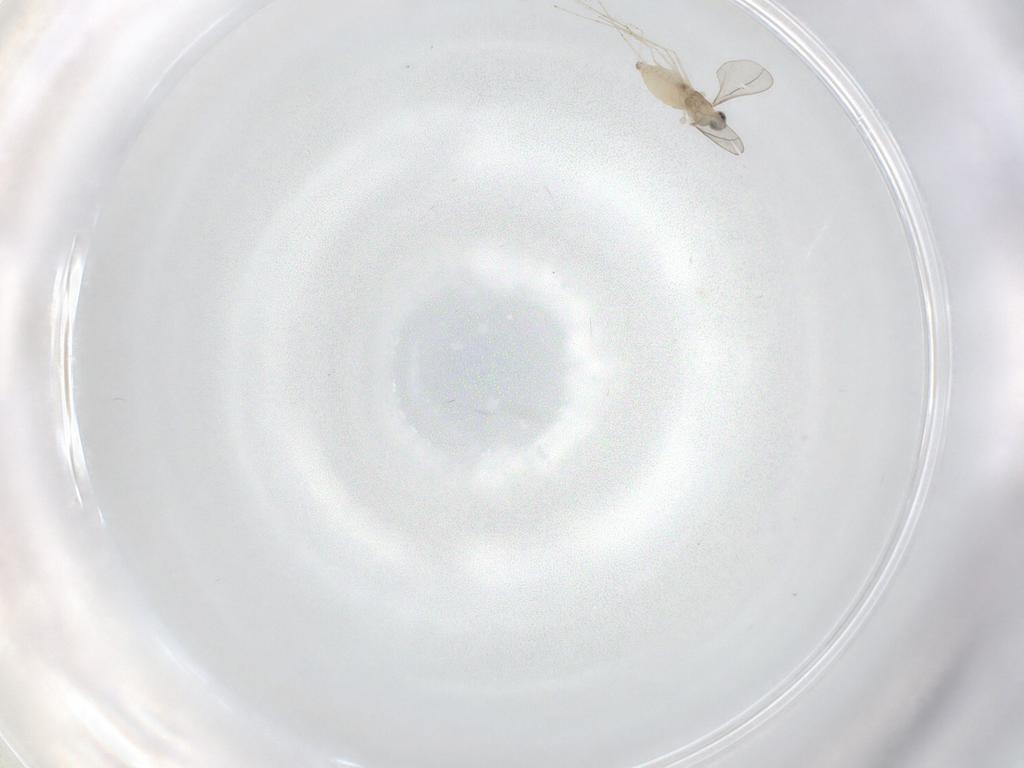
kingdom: Animalia
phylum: Arthropoda
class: Insecta
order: Diptera
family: Cecidomyiidae
